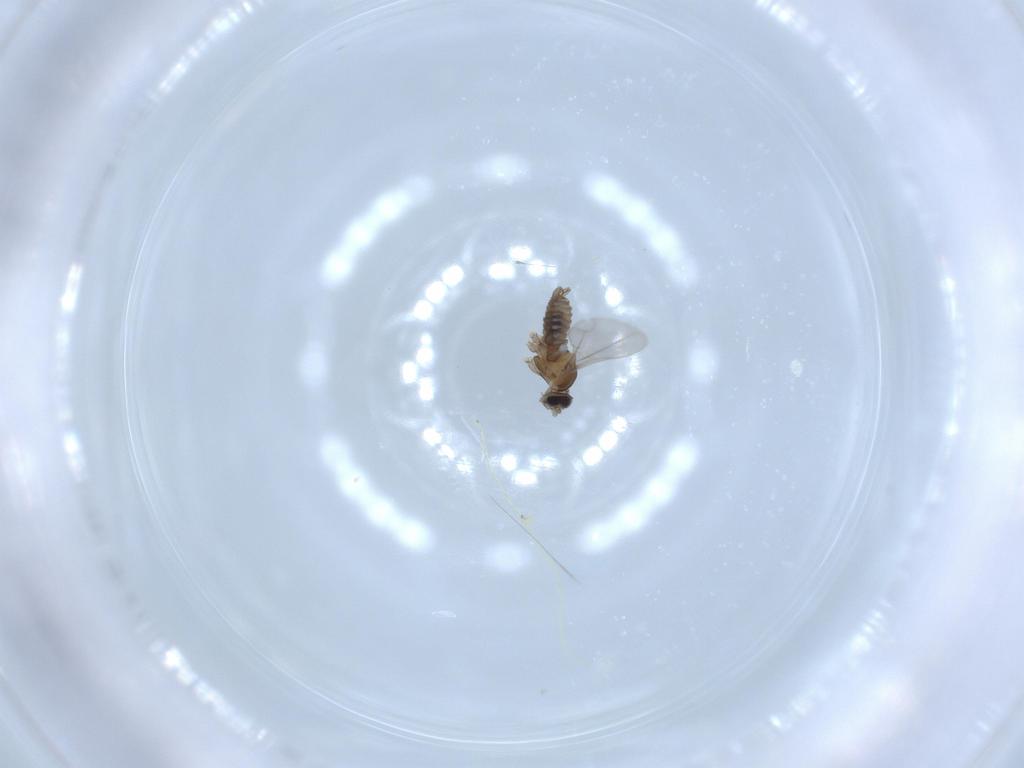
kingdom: Animalia
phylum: Arthropoda
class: Insecta
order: Diptera
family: Cecidomyiidae
